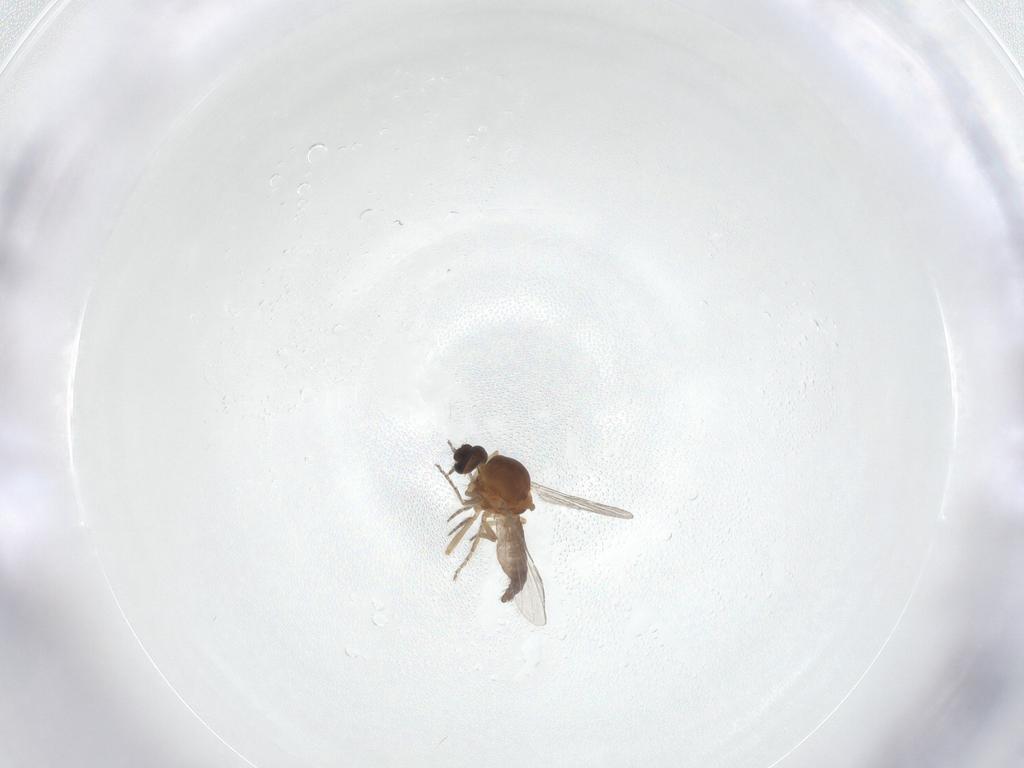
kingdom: Animalia
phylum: Arthropoda
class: Insecta
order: Diptera
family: Ceratopogonidae
